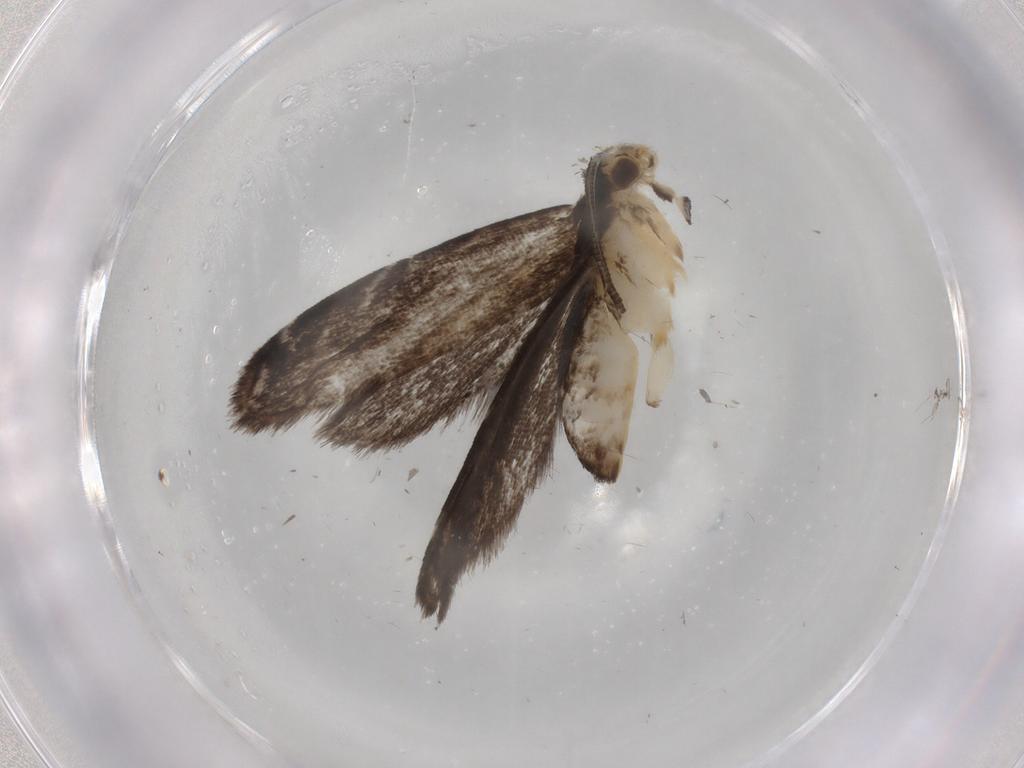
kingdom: Animalia
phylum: Arthropoda
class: Insecta
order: Lepidoptera
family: Dryadaulidae
